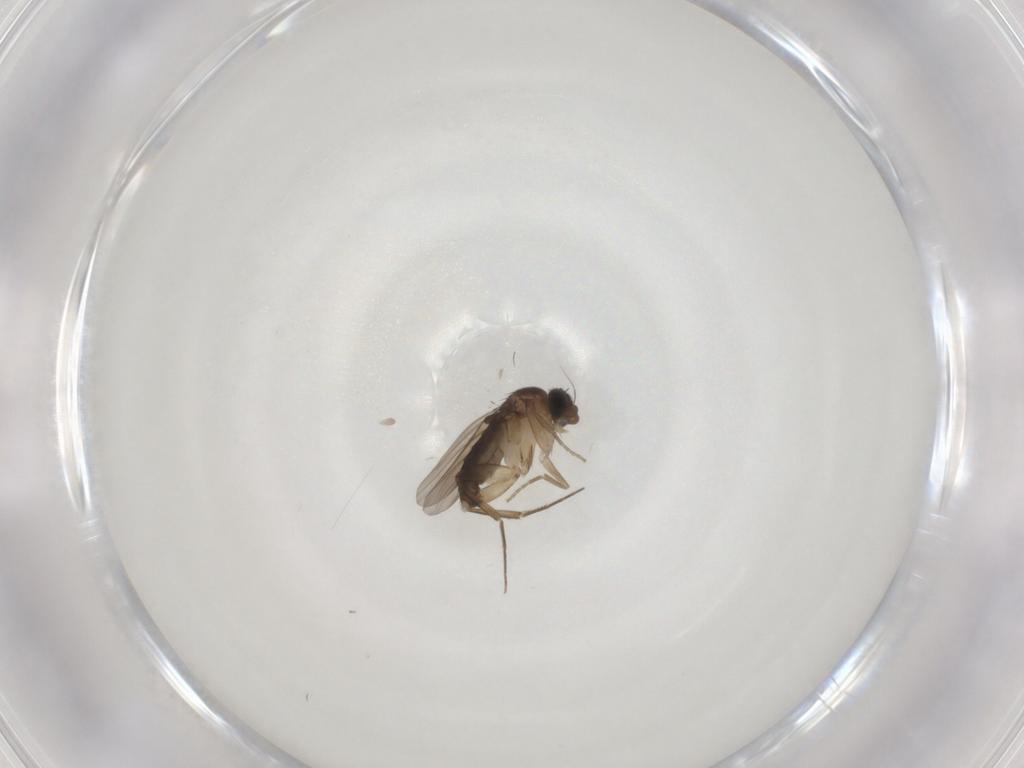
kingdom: Animalia
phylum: Arthropoda
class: Insecta
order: Diptera
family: Phoridae
